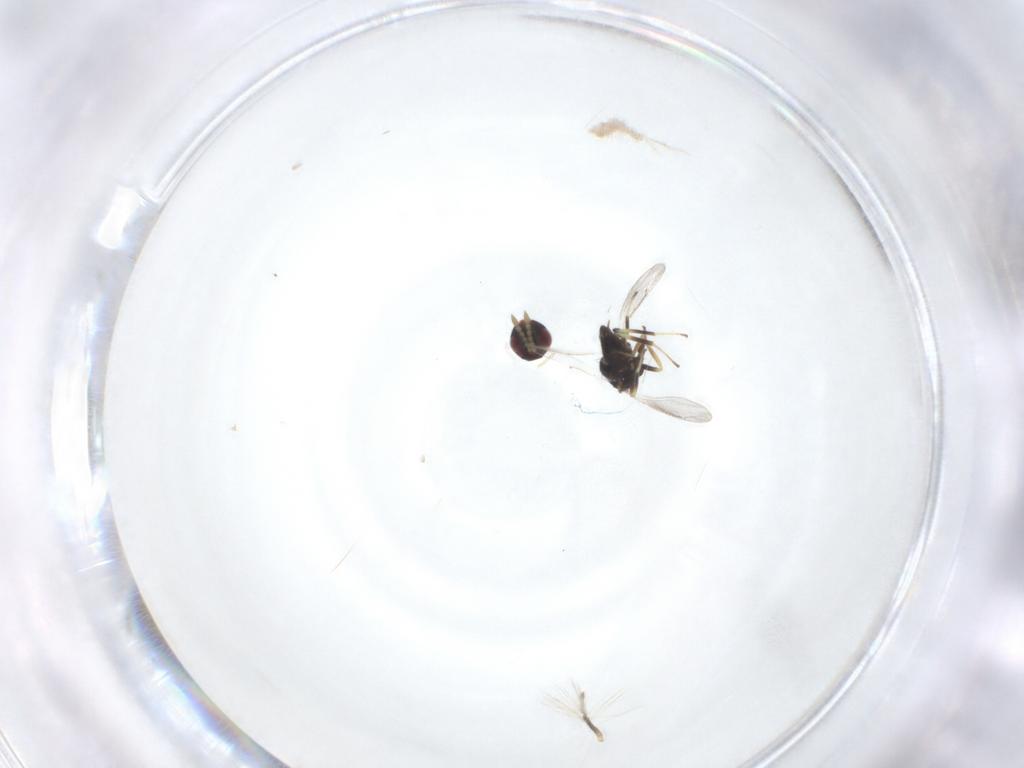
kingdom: Animalia
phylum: Arthropoda
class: Insecta
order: Hymenoptera
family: Eulophidae
